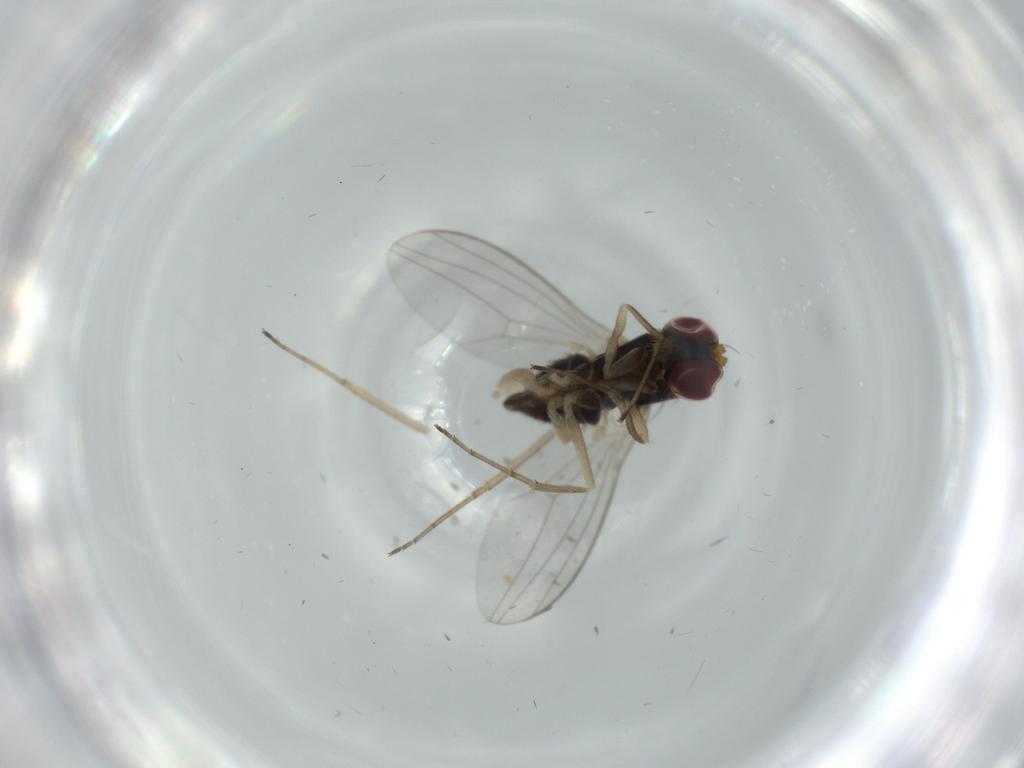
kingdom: Animalia
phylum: Arthropoda
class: Insecta
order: Diptera
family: Dolichopodidae
